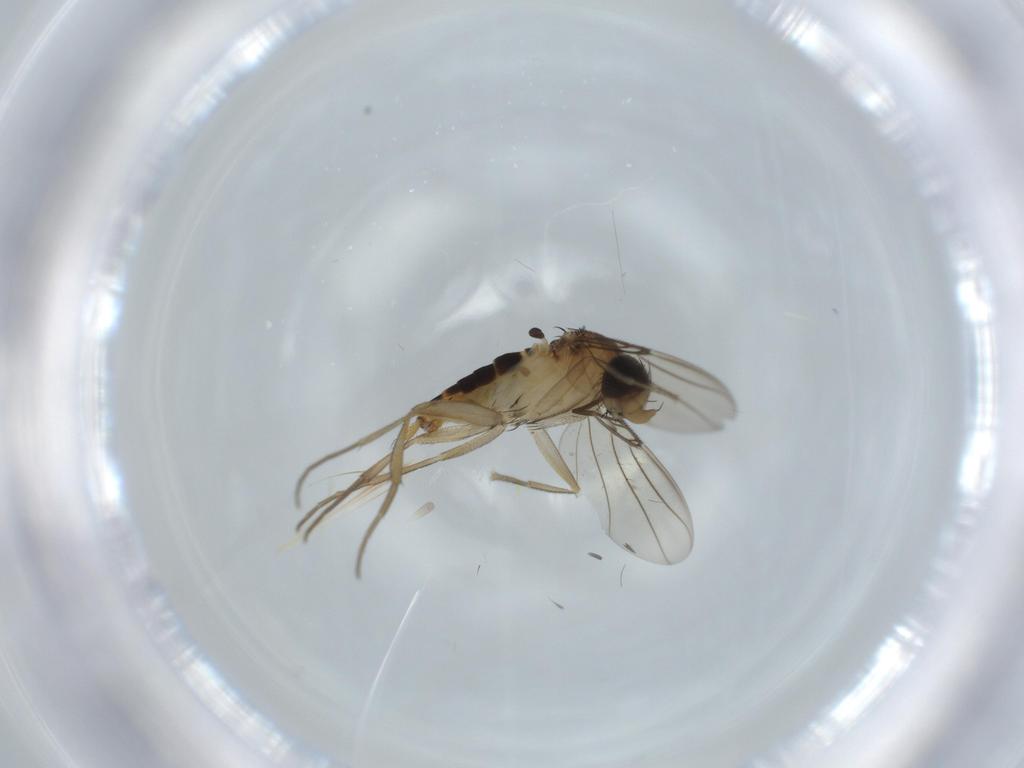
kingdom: Animalia
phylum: Arthropoda
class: Insecta
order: Diptera
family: Phoridae
